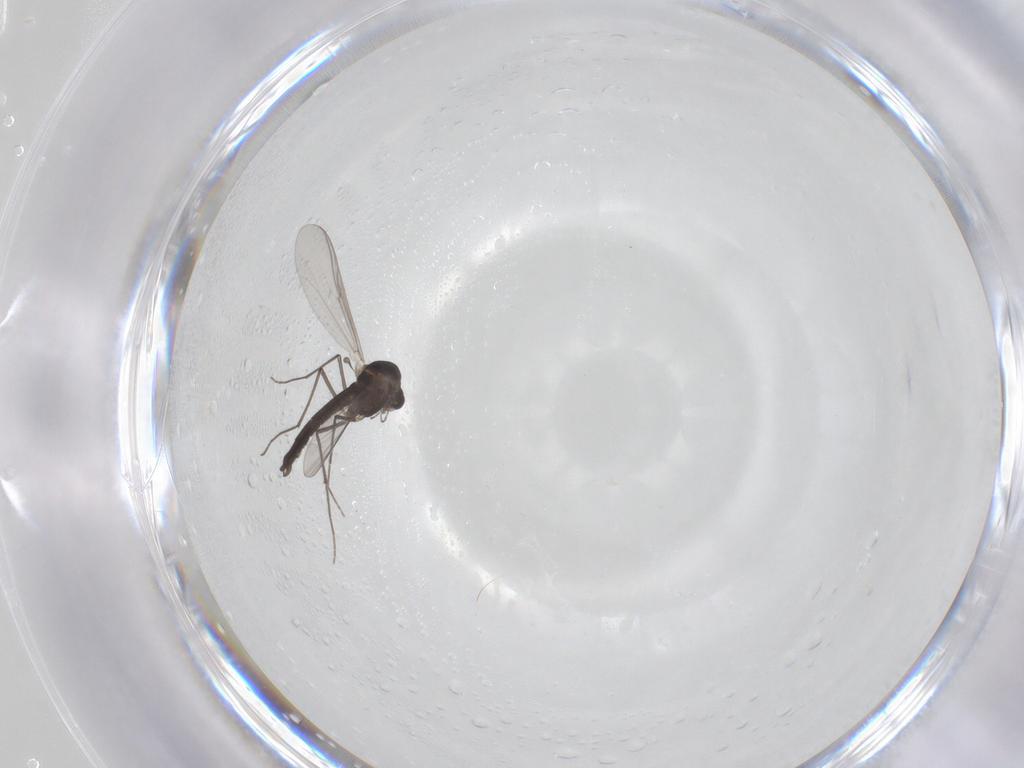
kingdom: Animalia
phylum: Arthropoda
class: Insecta
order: Diptera
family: Chironomidae
